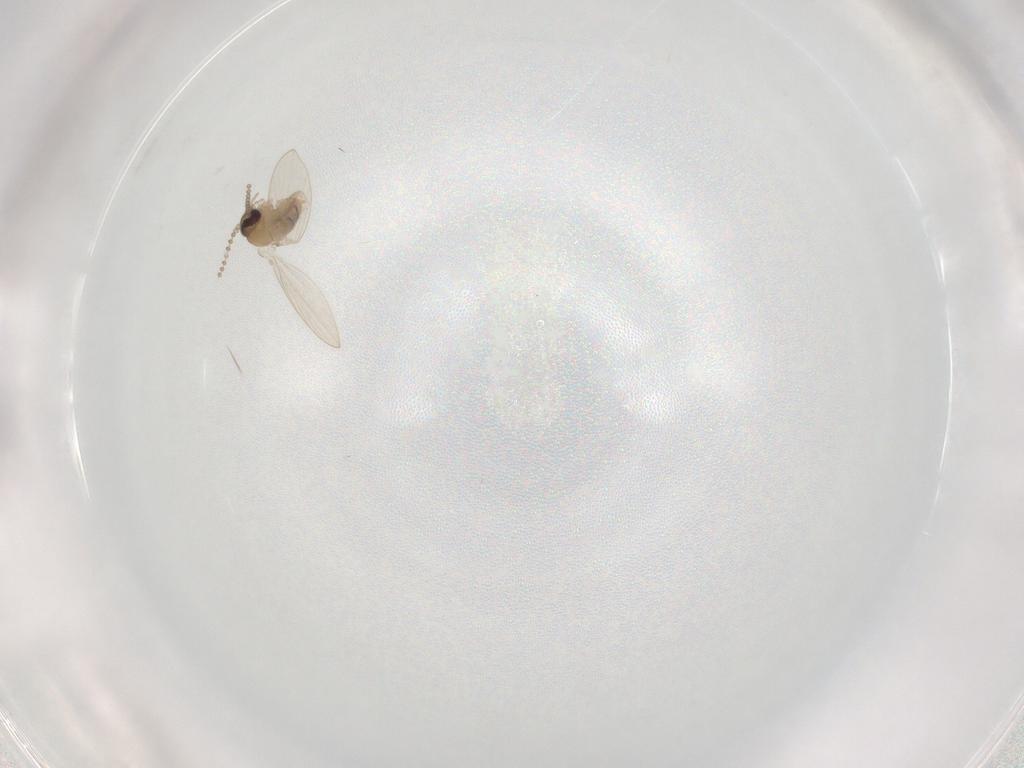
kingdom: Animalia
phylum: Arthropoda
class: Insecta
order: Diptera
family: Psychodidae
